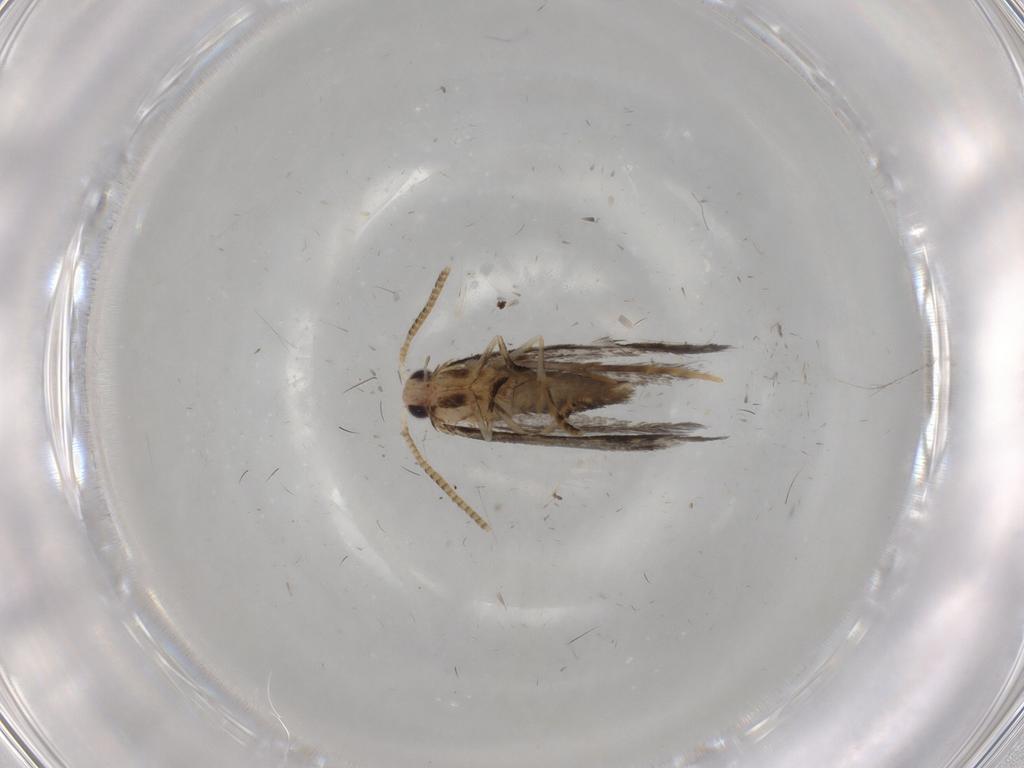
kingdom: Animalia
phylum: Arthropoda
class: Insecta
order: Lepidoptera
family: Tineidae
